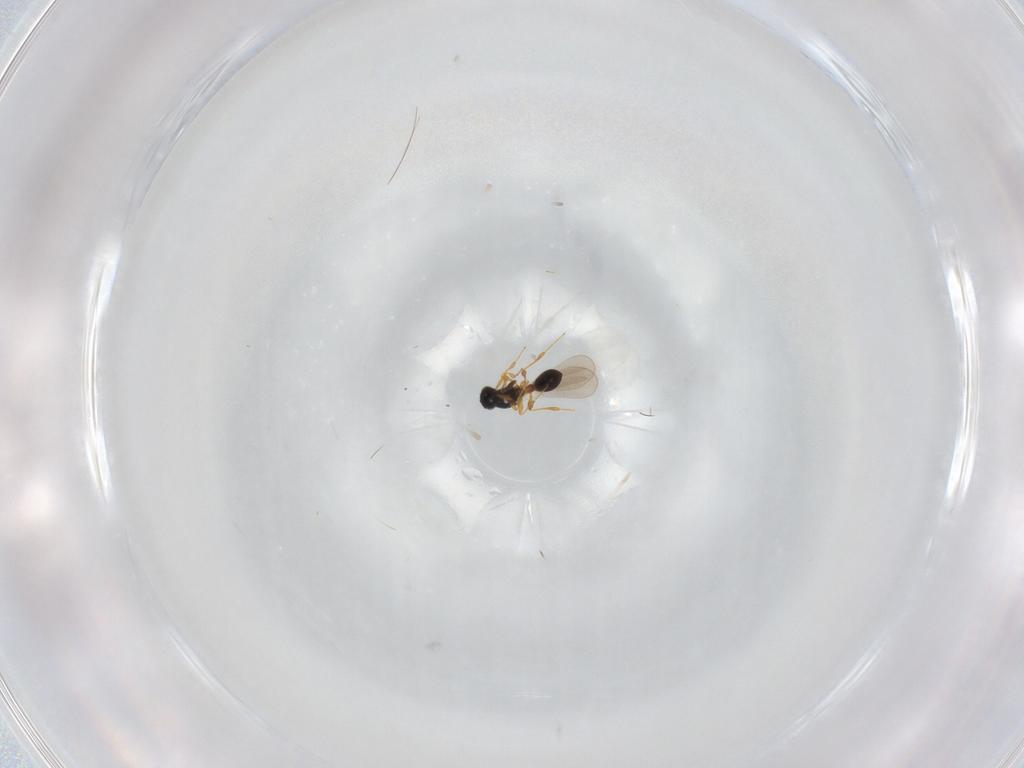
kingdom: Animalia
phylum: Arthropoda
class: Insecta
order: Hymenoptera
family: Platygastridae
